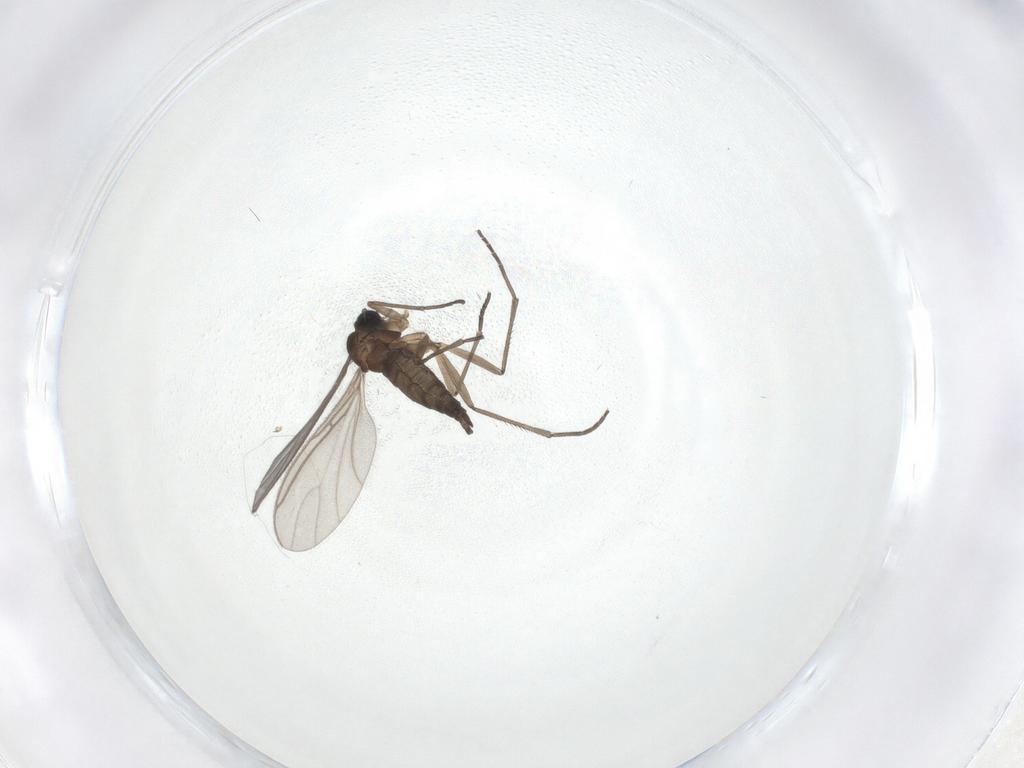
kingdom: Animalia
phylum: Arthropoda
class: Insecta
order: Diptera
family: Sciaridae
